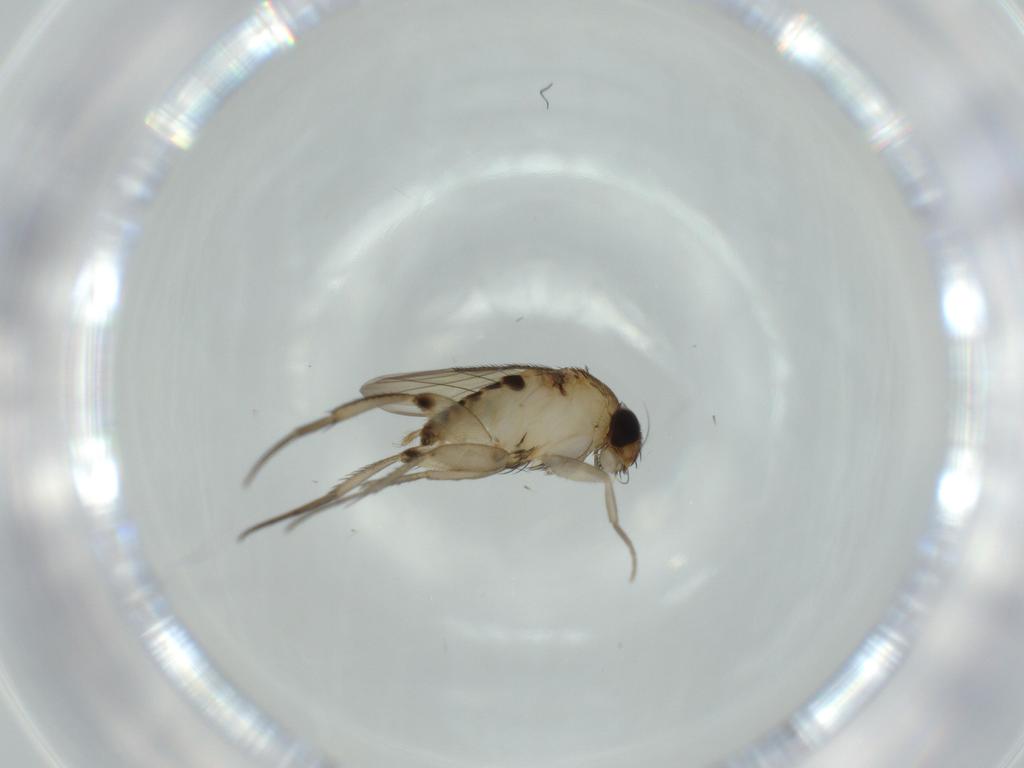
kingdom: Animalia
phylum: Arthropoda
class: Insecta
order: Diptera
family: Phoridae
